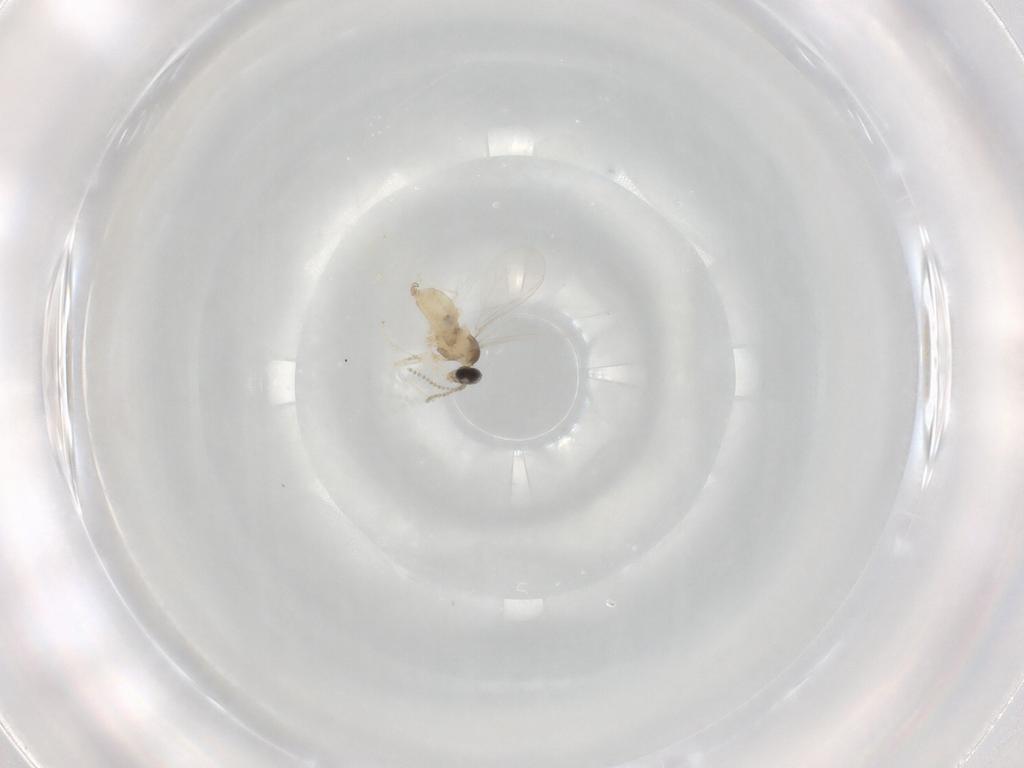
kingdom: Animalia
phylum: Arthropoda
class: Insecta
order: Diptera
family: Cecidomyiidae
